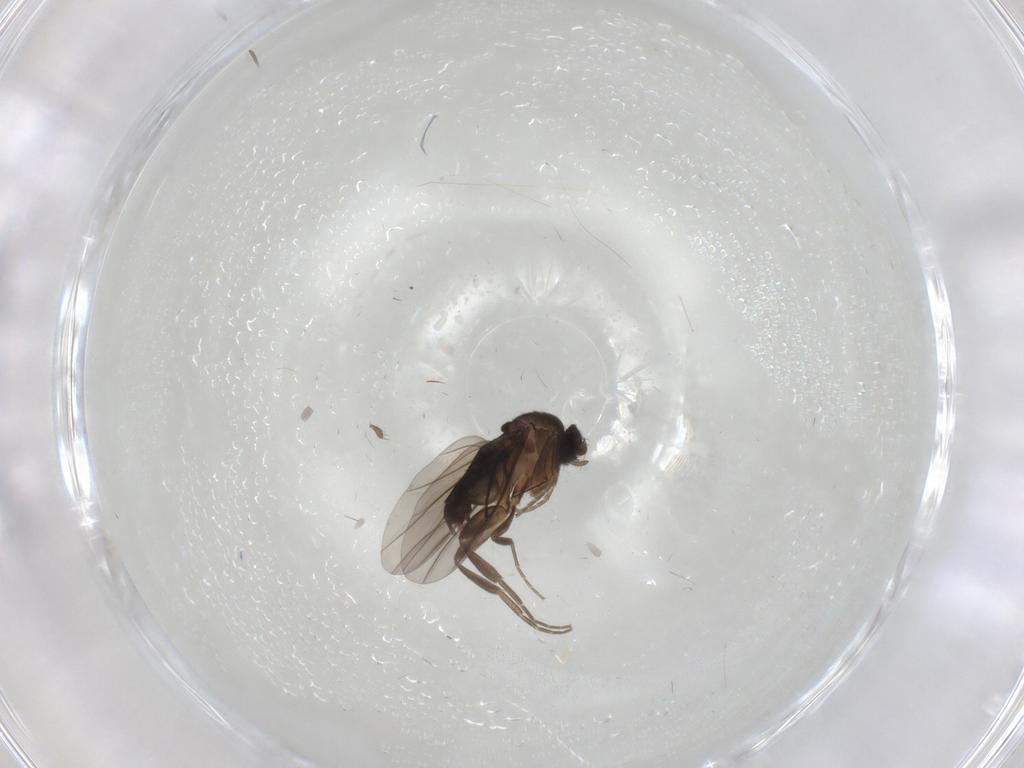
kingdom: Animalia
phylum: Arthropoda
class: Insecta
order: Diptera
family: Phoridae
